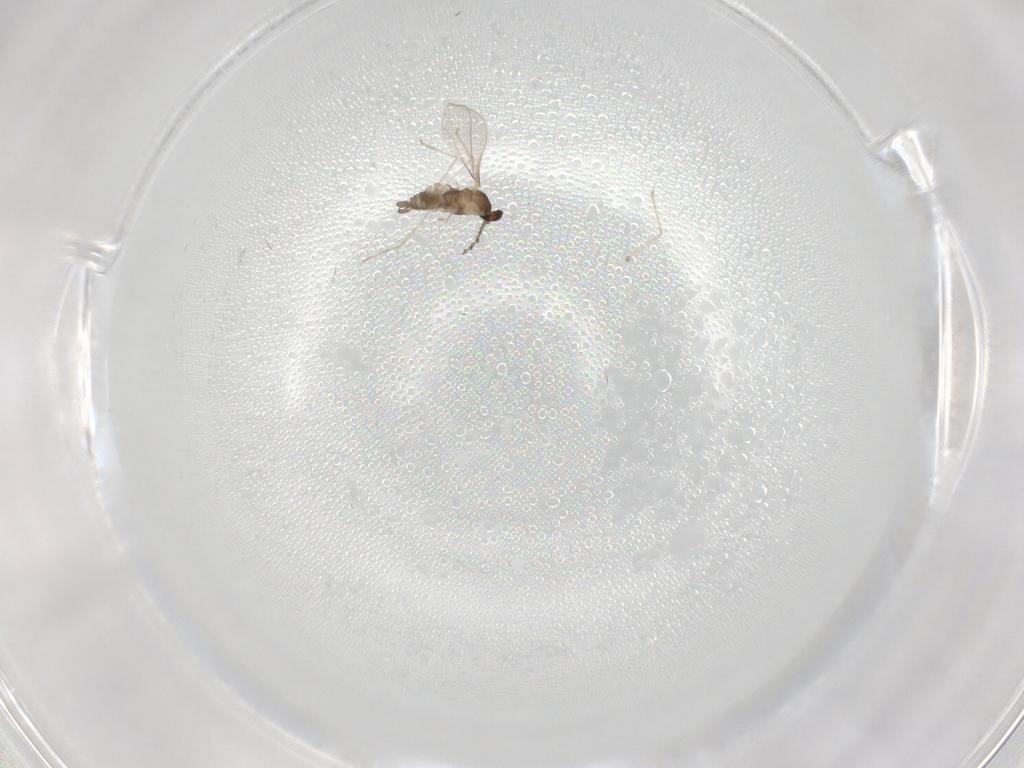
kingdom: Animalia
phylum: Arthropoda
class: Insecta
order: Diptera
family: Cecidomyiidae
